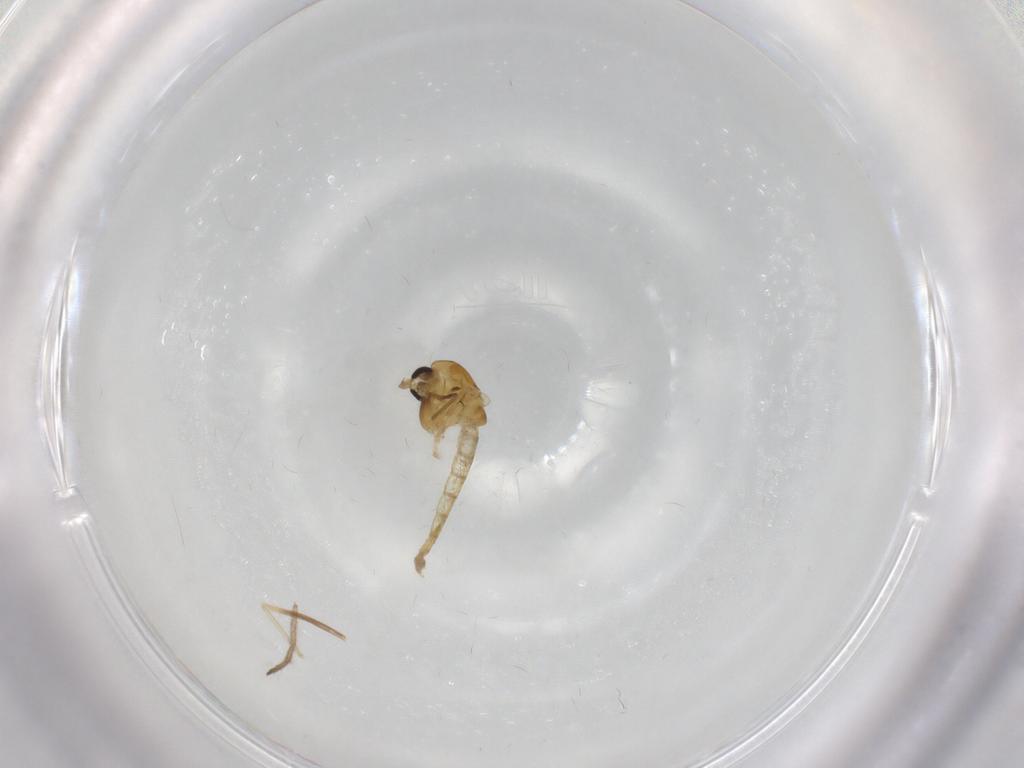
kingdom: Animalia
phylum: Arthropoda
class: Insecta
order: Diptera
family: Chironomidae
